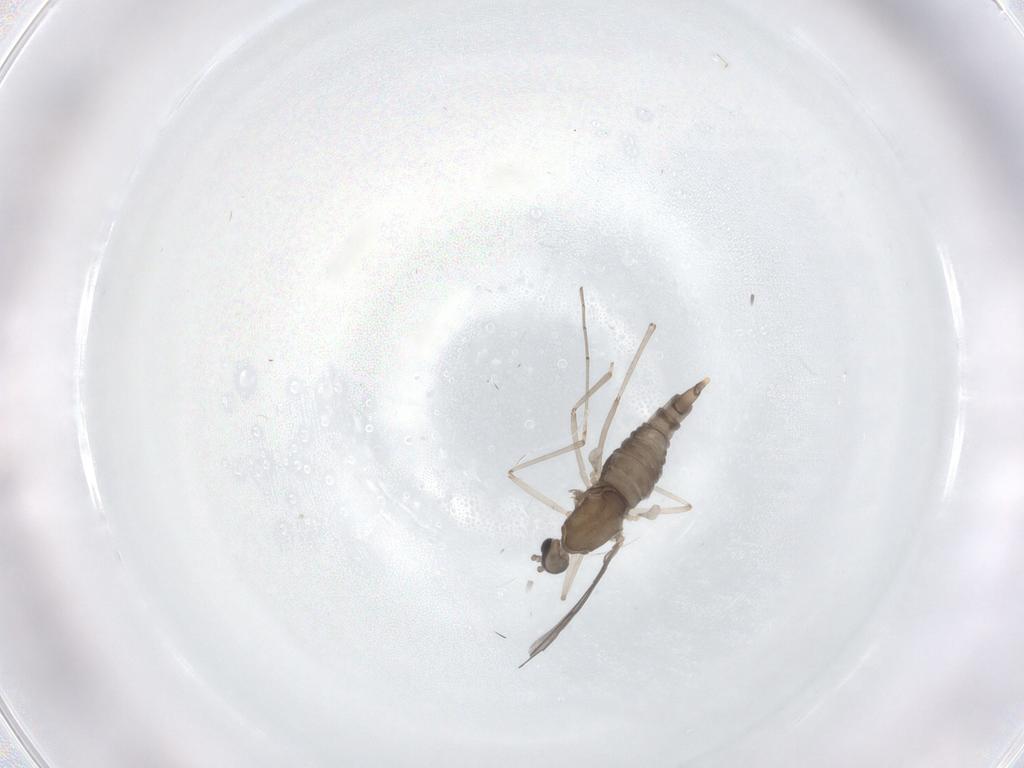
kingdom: Animalia
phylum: Arthropoda
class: Insecta
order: Diptera
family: Cecidomyiidae
